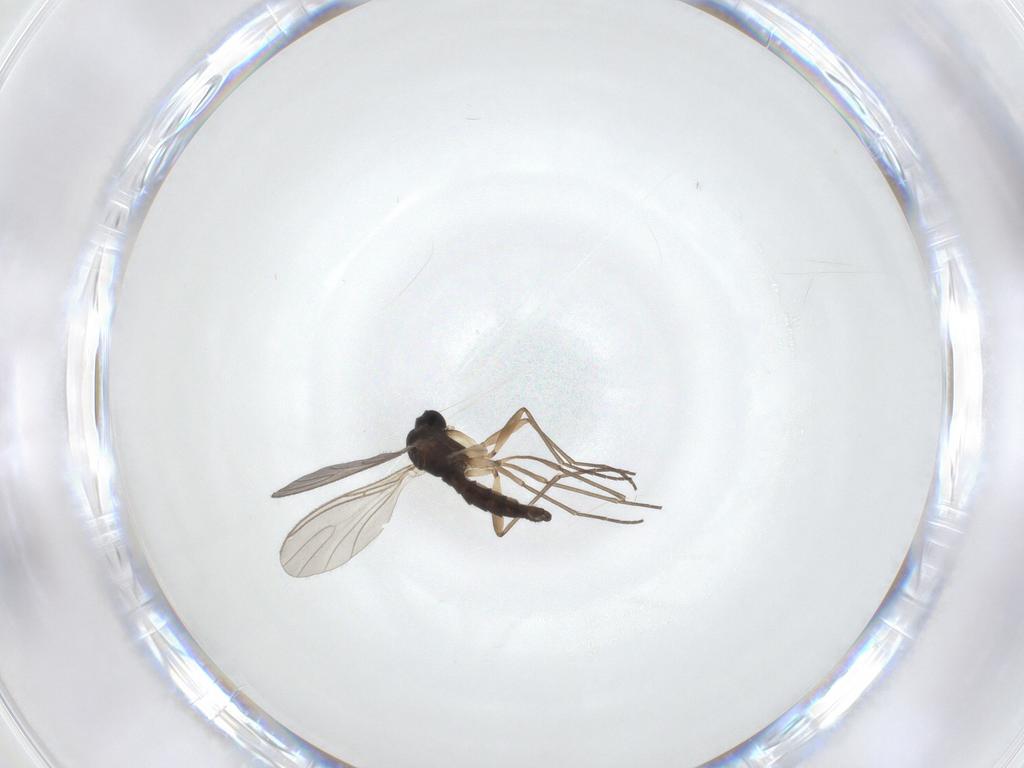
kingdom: Animalia
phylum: Arthropoda
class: Insecta
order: Diptera
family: Sciaridae
